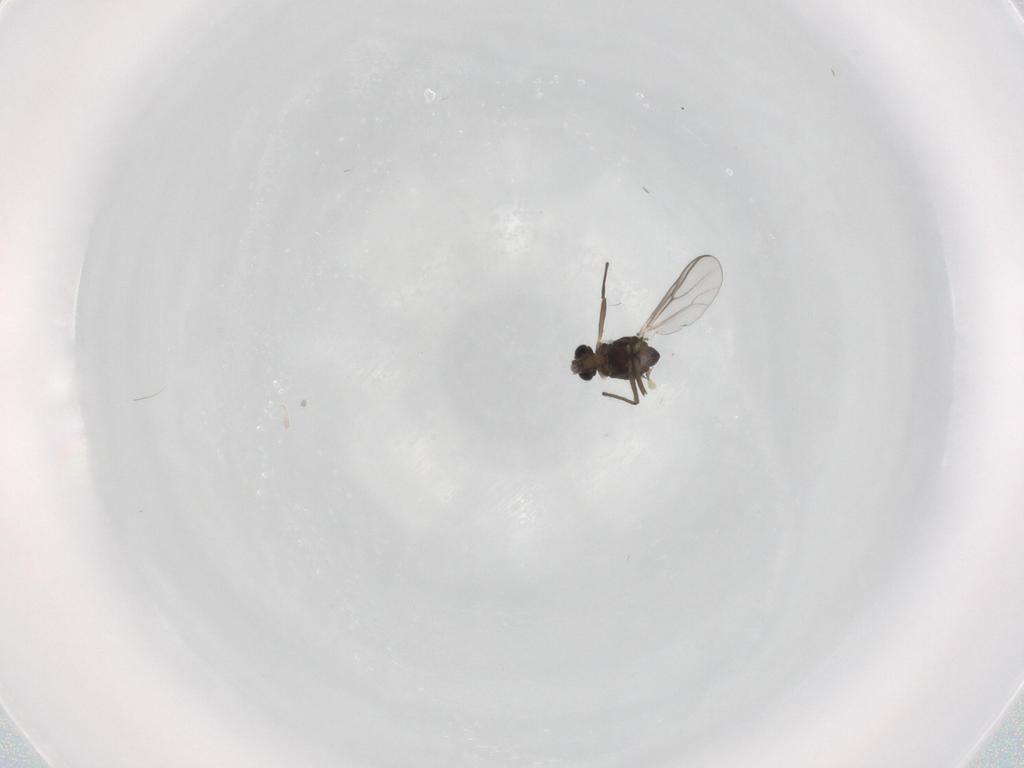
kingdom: Animalia
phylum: Arthropoda
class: Insecta
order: Diptera
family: Chironomidae
